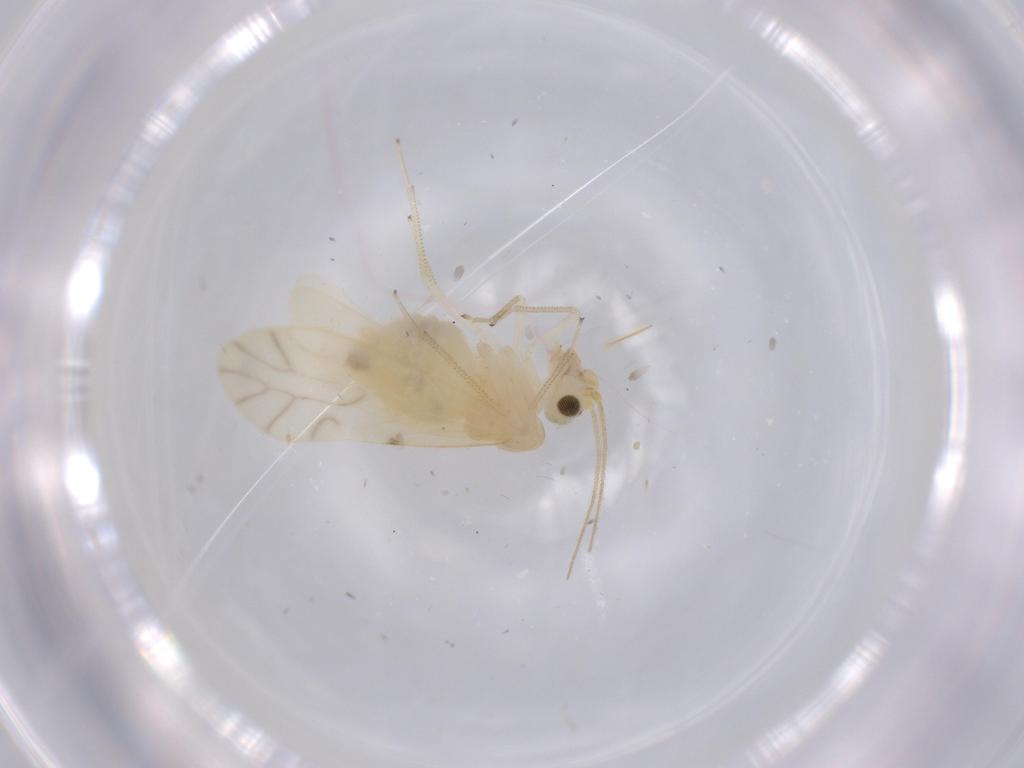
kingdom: Animalia
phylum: Arthropoda
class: Insecta
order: Psocodea
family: Caeciliusidae
